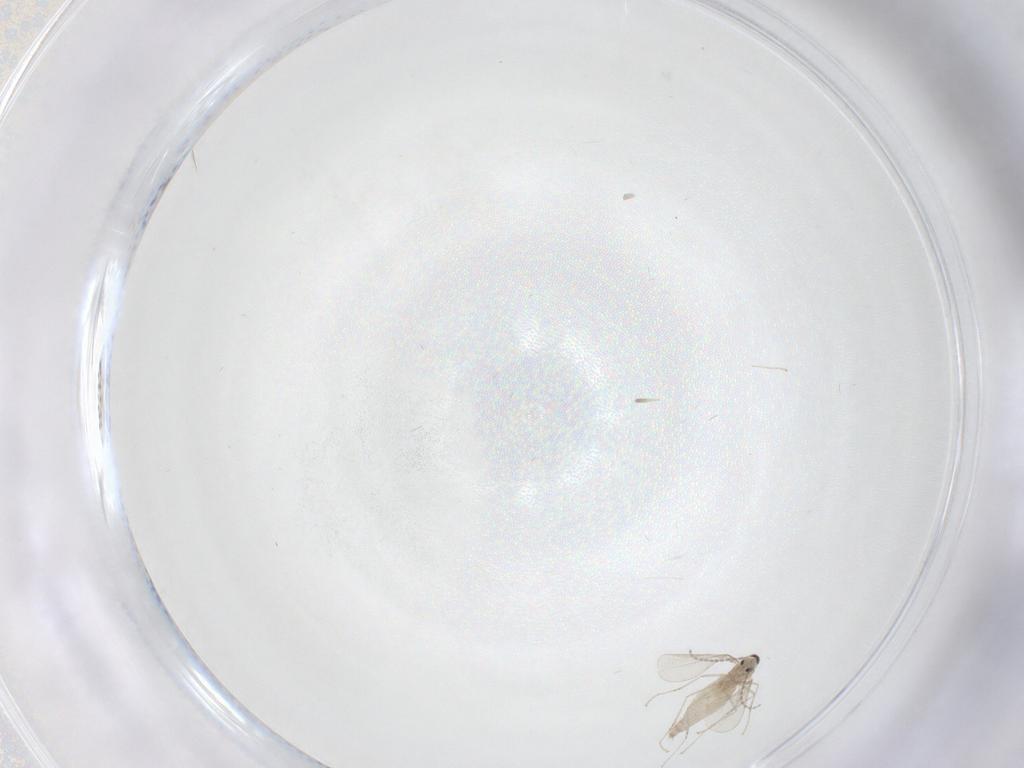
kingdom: Animalia
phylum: Arthropoda
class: Insecta
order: Diptera
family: Cecidomyiidae
